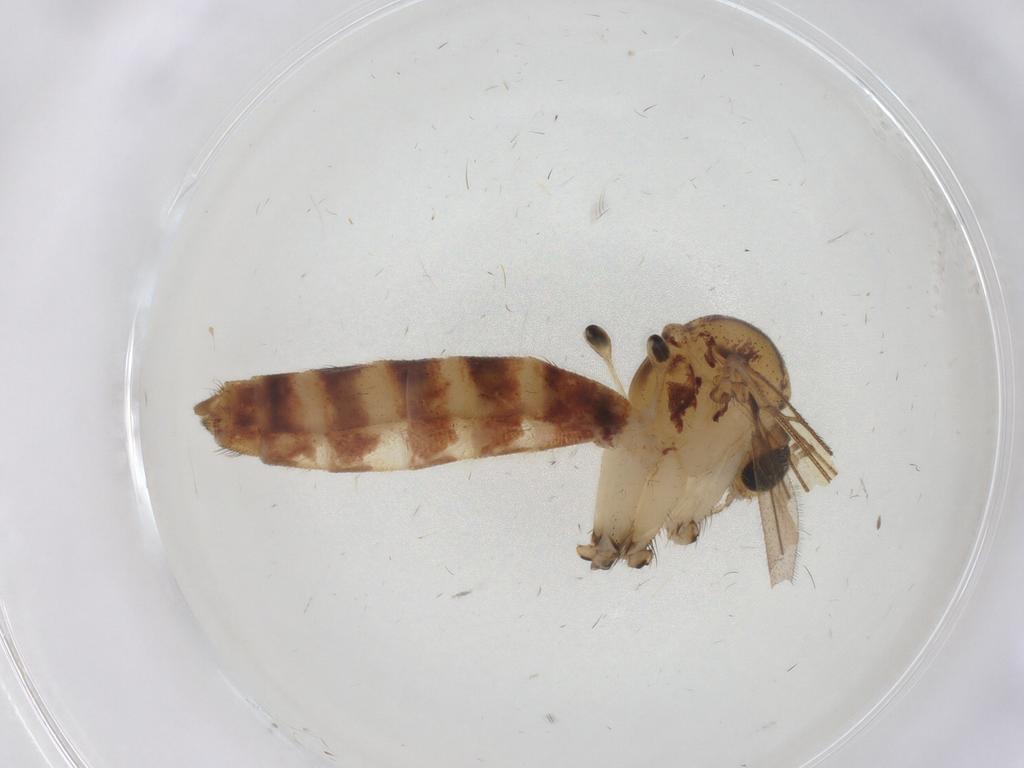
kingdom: Animalia
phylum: Arthropoda
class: Insecta
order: Diptera
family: Mycetophilidae
